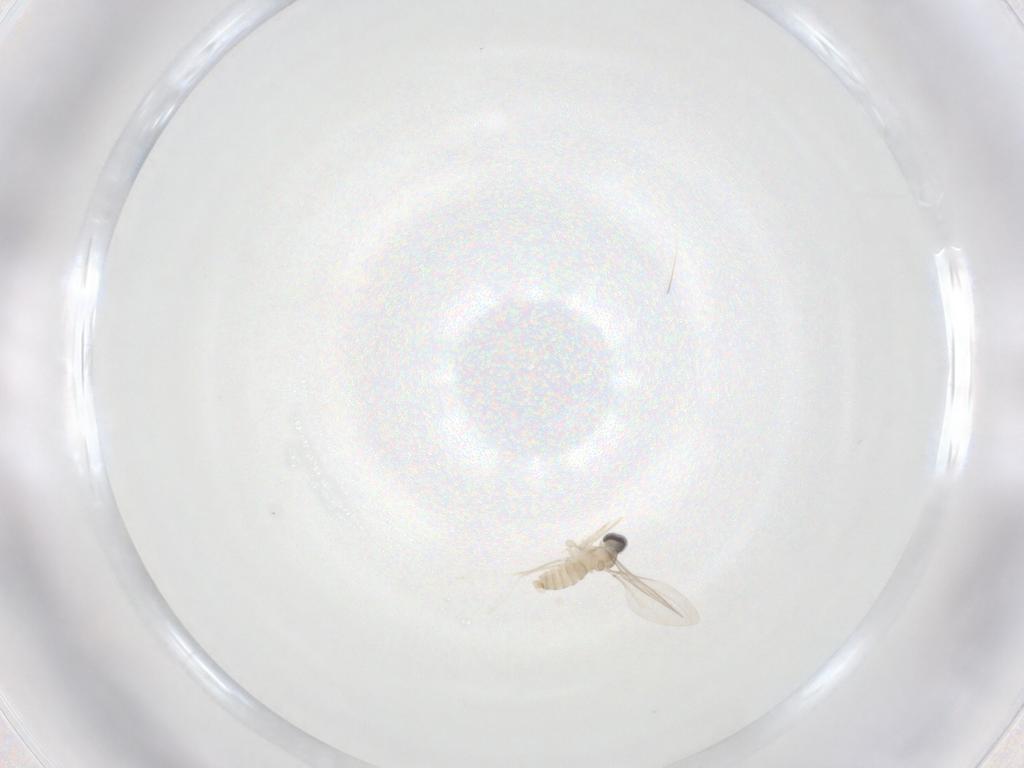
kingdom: Animalia
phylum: Arthropoda
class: Insecta
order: Diptera
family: Cecidomyiidae
